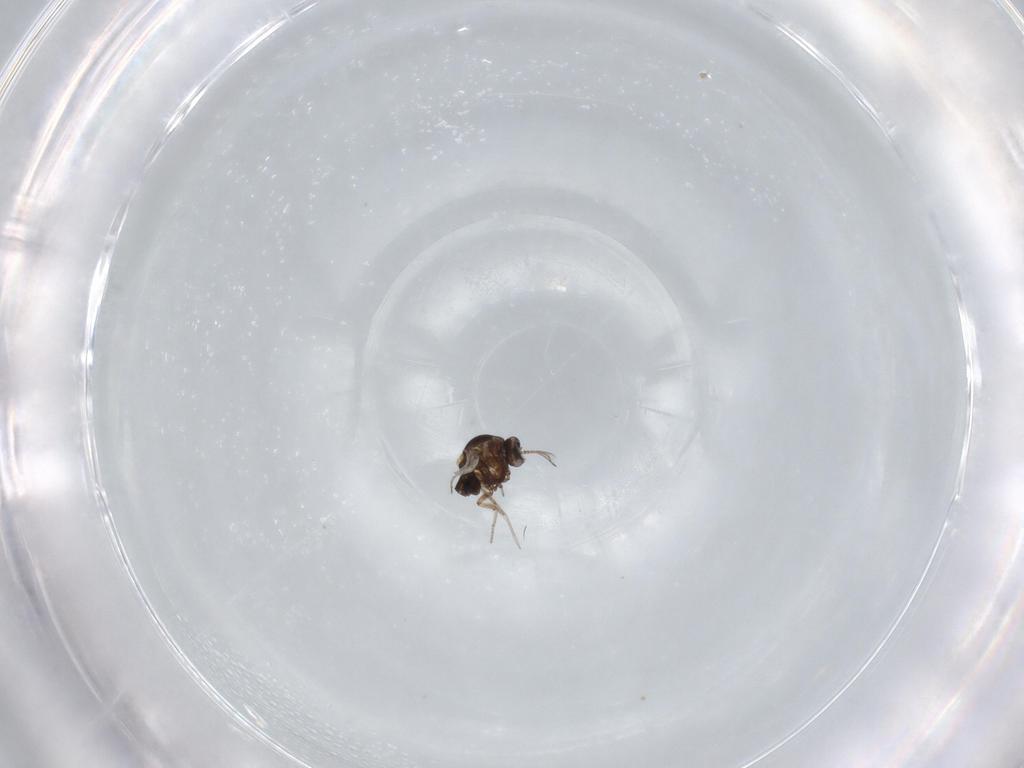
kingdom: Animalia
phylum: Arthropoda
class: Insecta
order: Diptera
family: Ceratopogonidae
